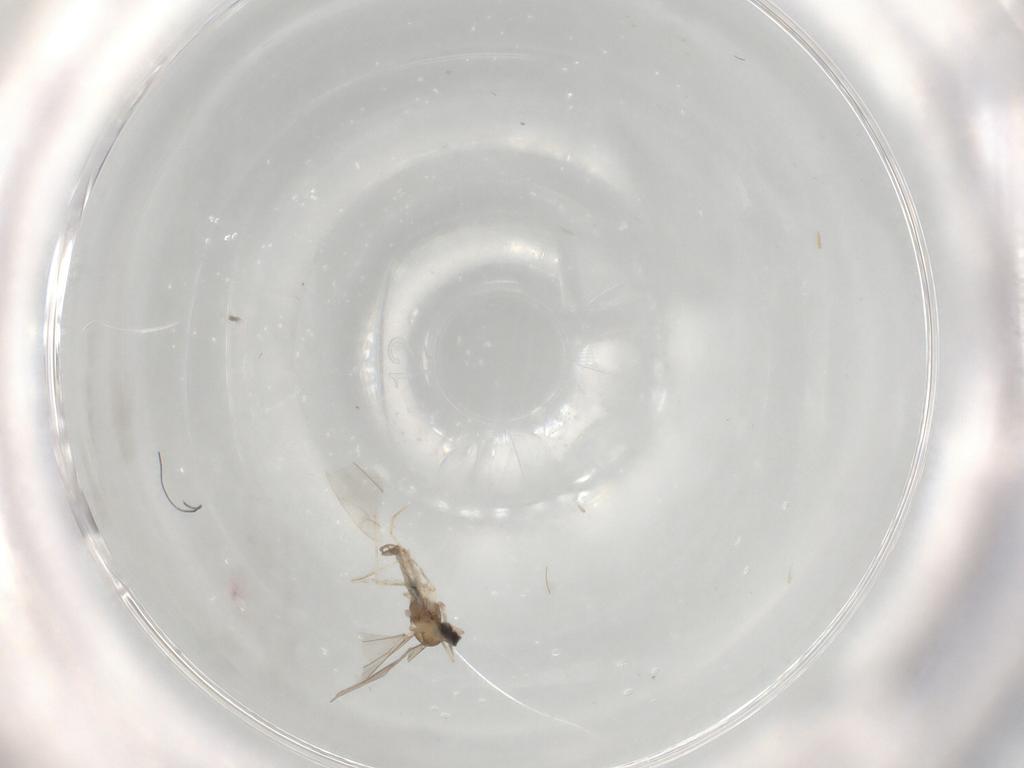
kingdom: Animalia
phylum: Arthropoda
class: Insecta
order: Diptera
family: Cecidomyiidae
